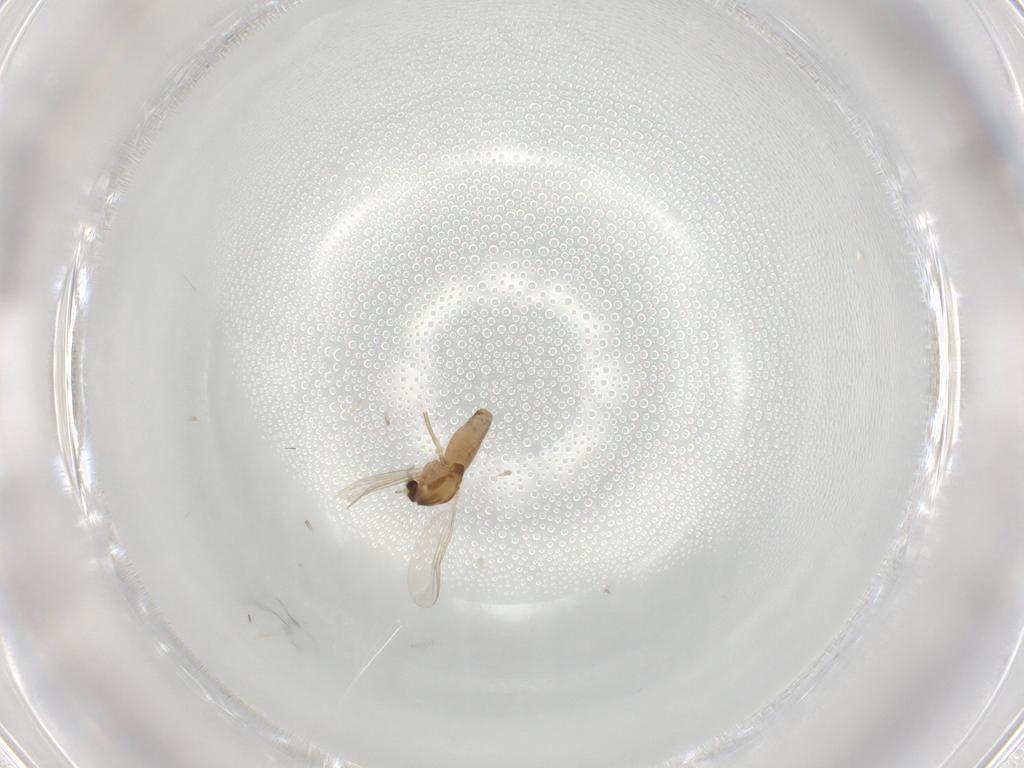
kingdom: Animalia
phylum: Arthropoda
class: Insecta
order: Diptera
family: Chironomidae
